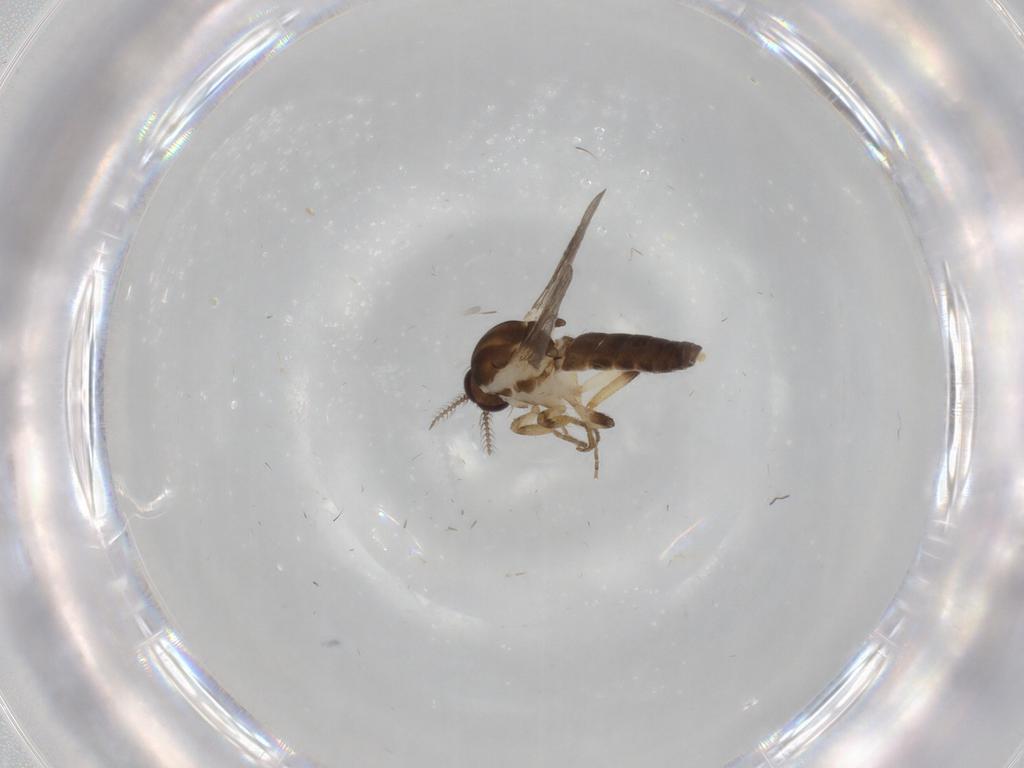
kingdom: Animalia
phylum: Arthropoda
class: Insecta
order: Diptera
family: Ceratopogonidae
